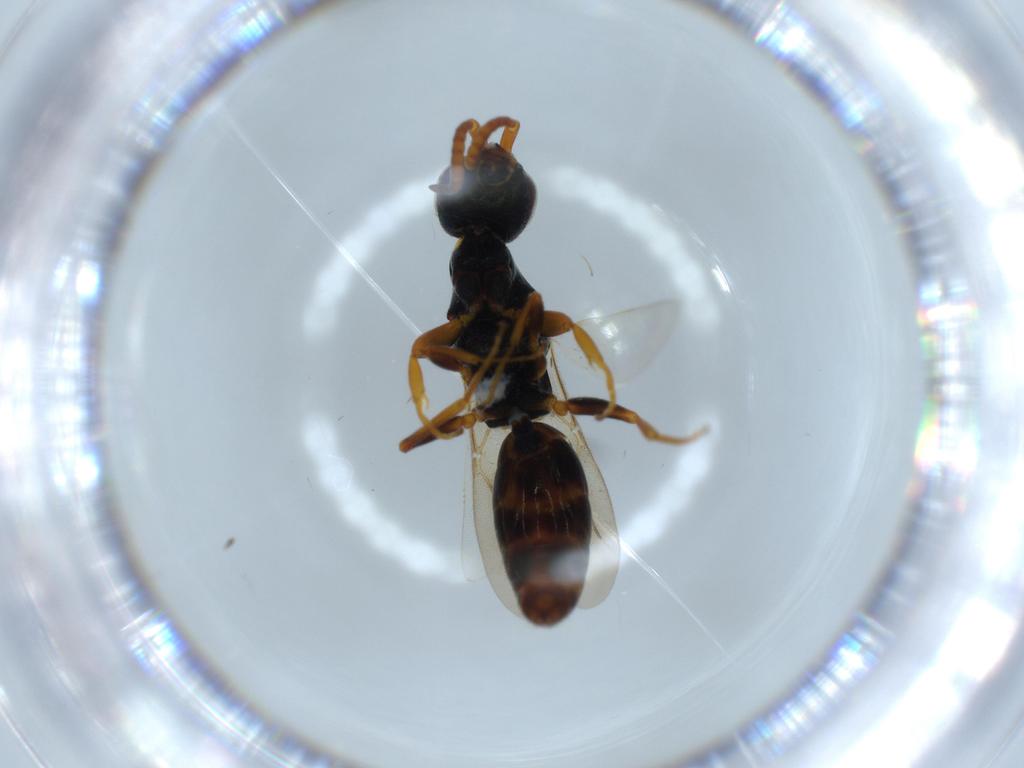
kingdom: Animalia
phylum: Arthropoda
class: Insecta
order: Hymenoptera
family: Bethylidae
